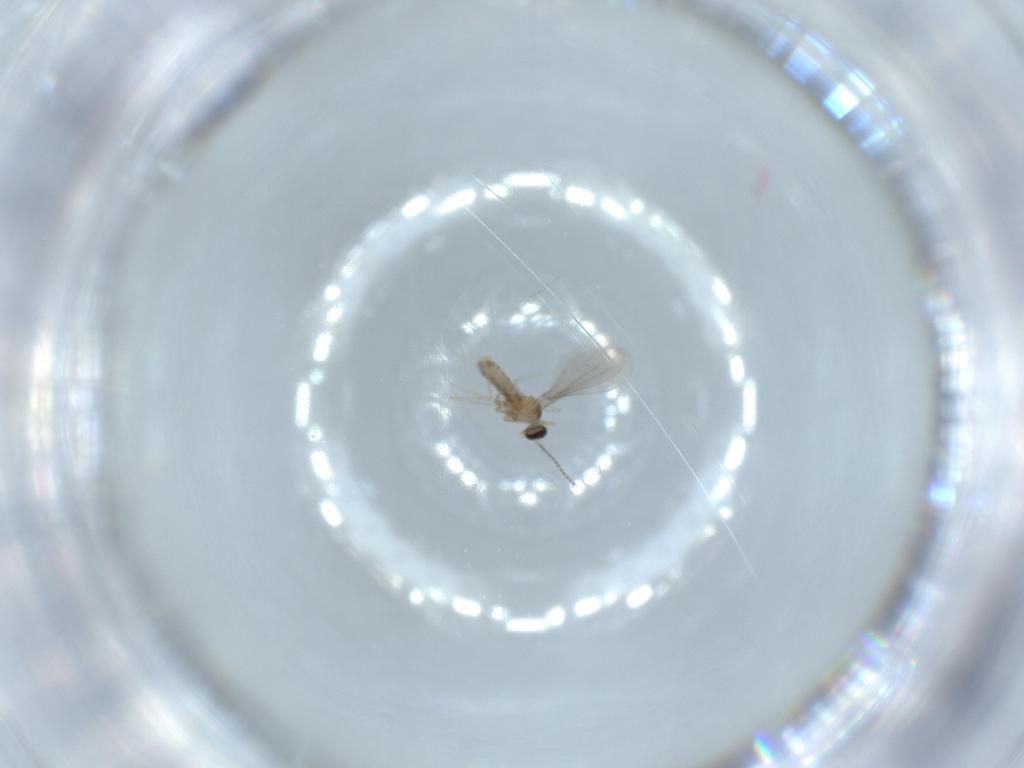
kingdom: Animalia
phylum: Arthropoda
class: Insecta
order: Diptera
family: Cecidomyiidae
